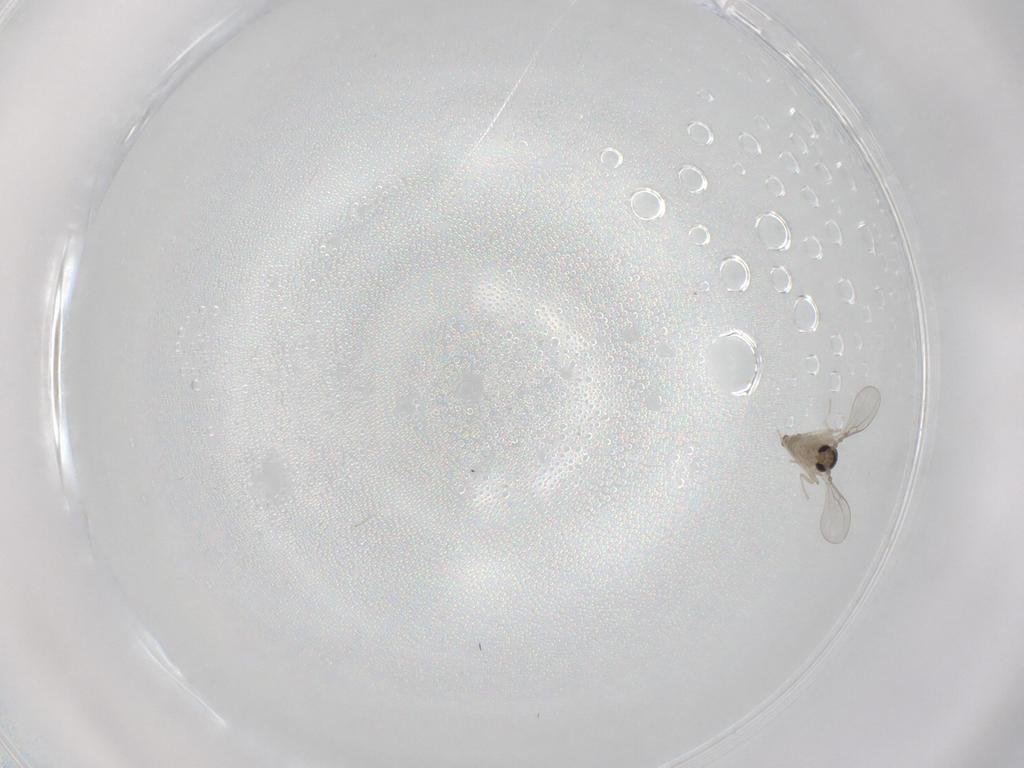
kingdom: Animalia
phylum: Arthropoda
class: Insecta
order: Diptera
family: Cecidomyiidae
